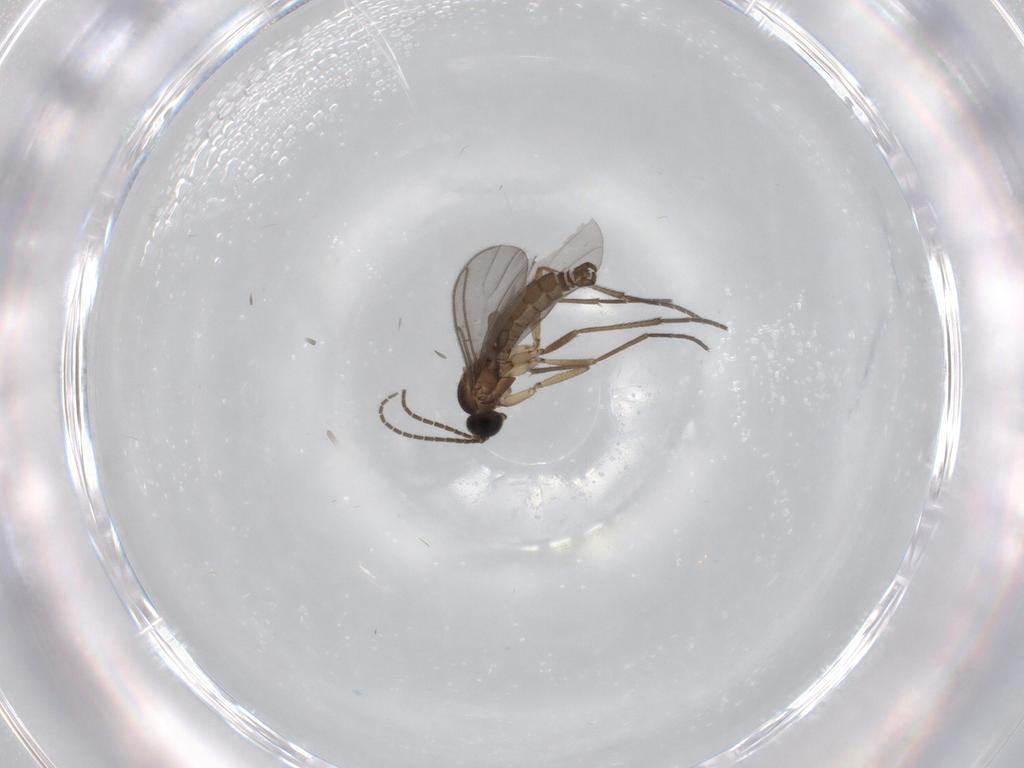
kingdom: Animalia
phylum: Arthropoda
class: Insecta
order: Diptera
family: Sciaridae
